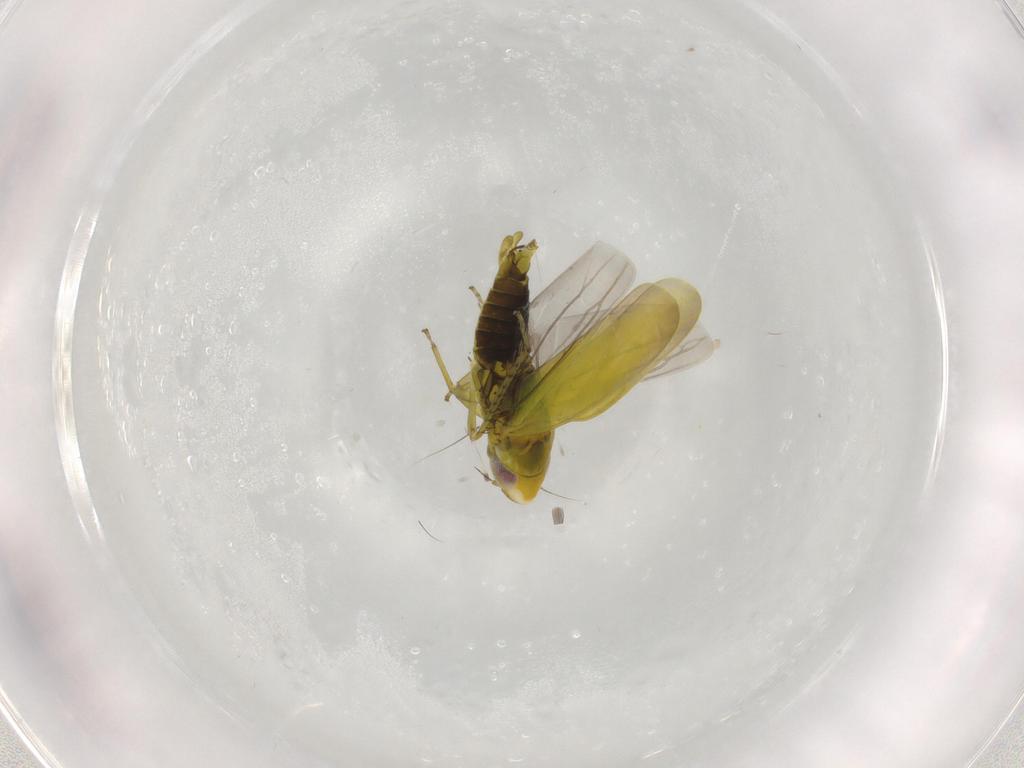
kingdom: Animalia
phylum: Arthropoda
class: Insecta
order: Hemiptera
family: Cicadellidae
